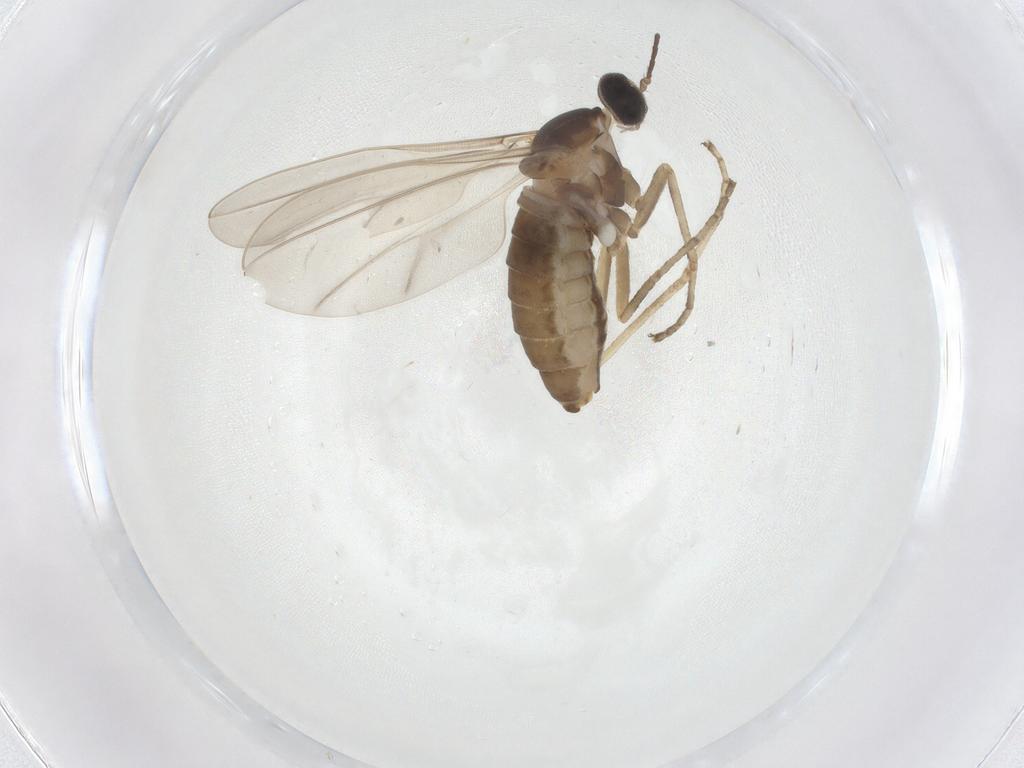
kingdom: Animalia
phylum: Arthropoda
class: Insecta
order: Diptera
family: Cecidomyiidae
